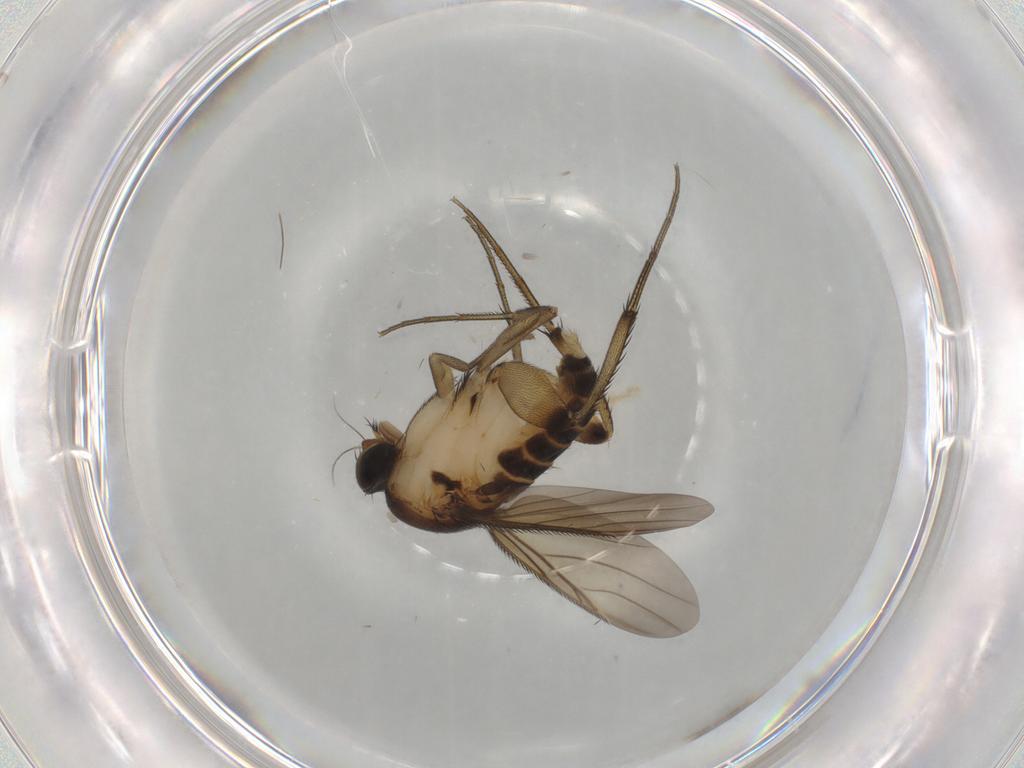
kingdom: Animalia
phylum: Arthropoda
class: Insecta
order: Diptera
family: Phoridae
